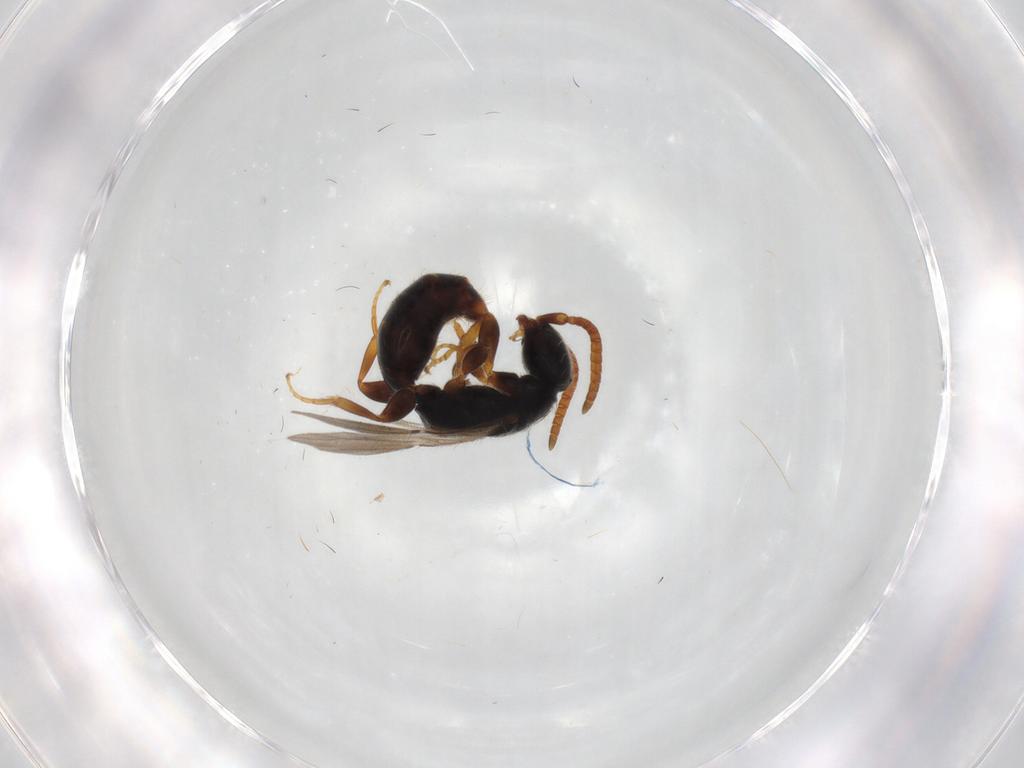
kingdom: Animalia
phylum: Arthropoda
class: Insecta
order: Hymenoptera
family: Bethylidae
